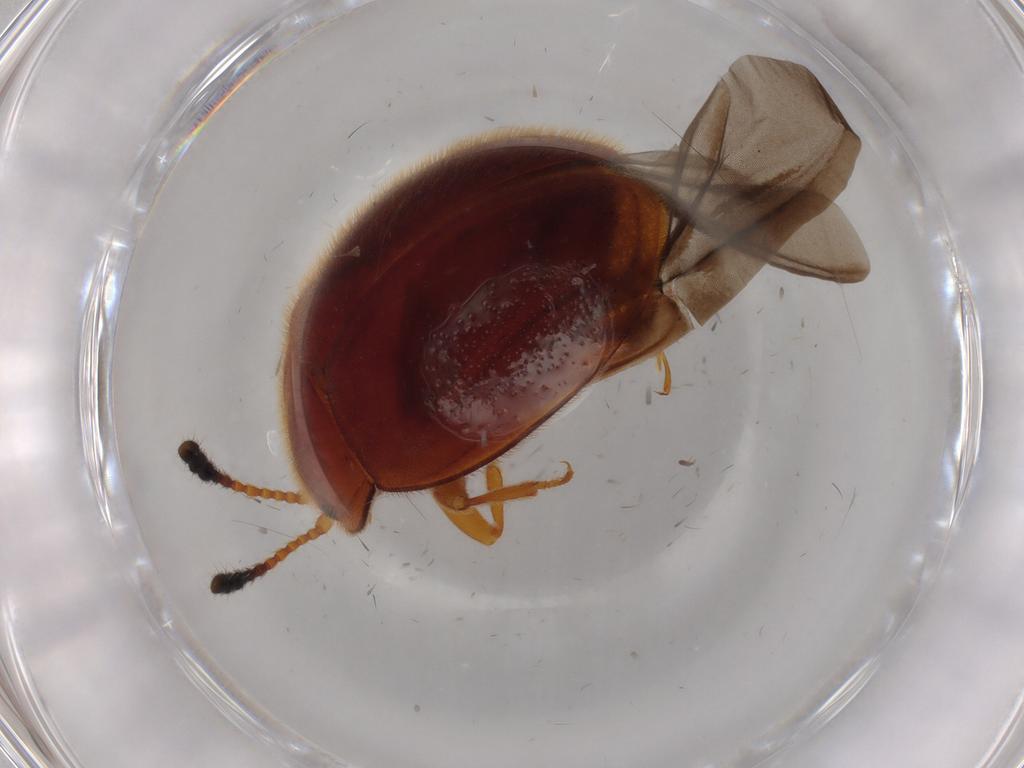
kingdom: Animalia
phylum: Arthropoda
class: Insecta
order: Coleoptera
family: Endomychidae
